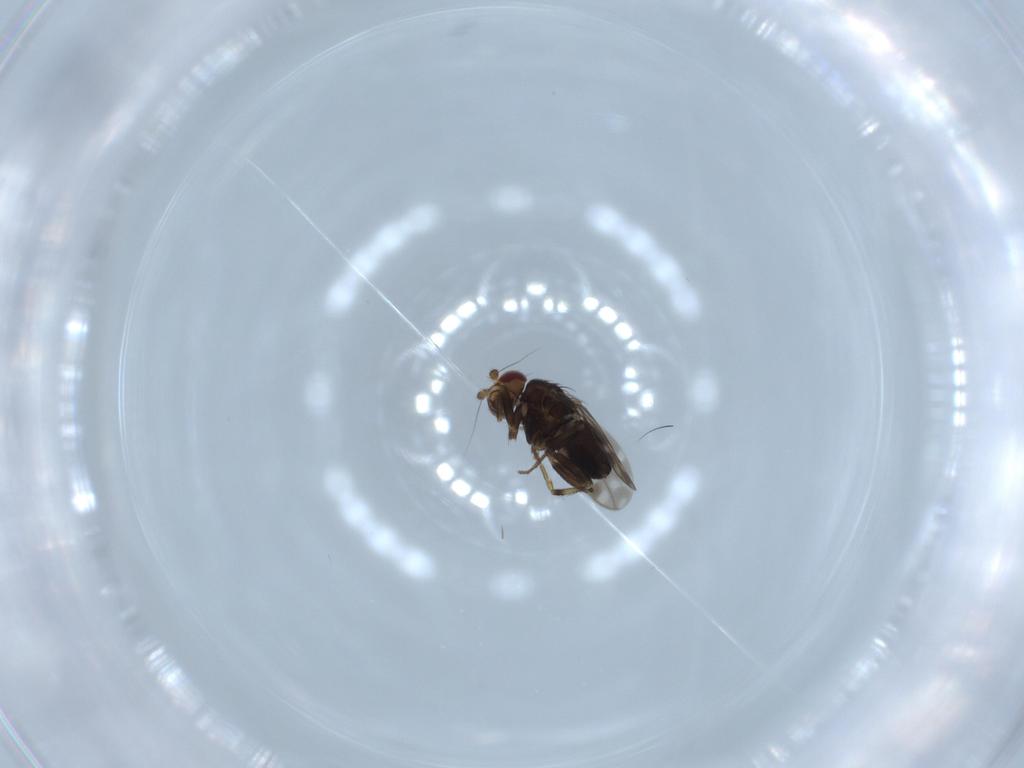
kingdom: Animalia
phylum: Arthropoda
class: Insecta
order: Diptera
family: Sphaeroceridae
